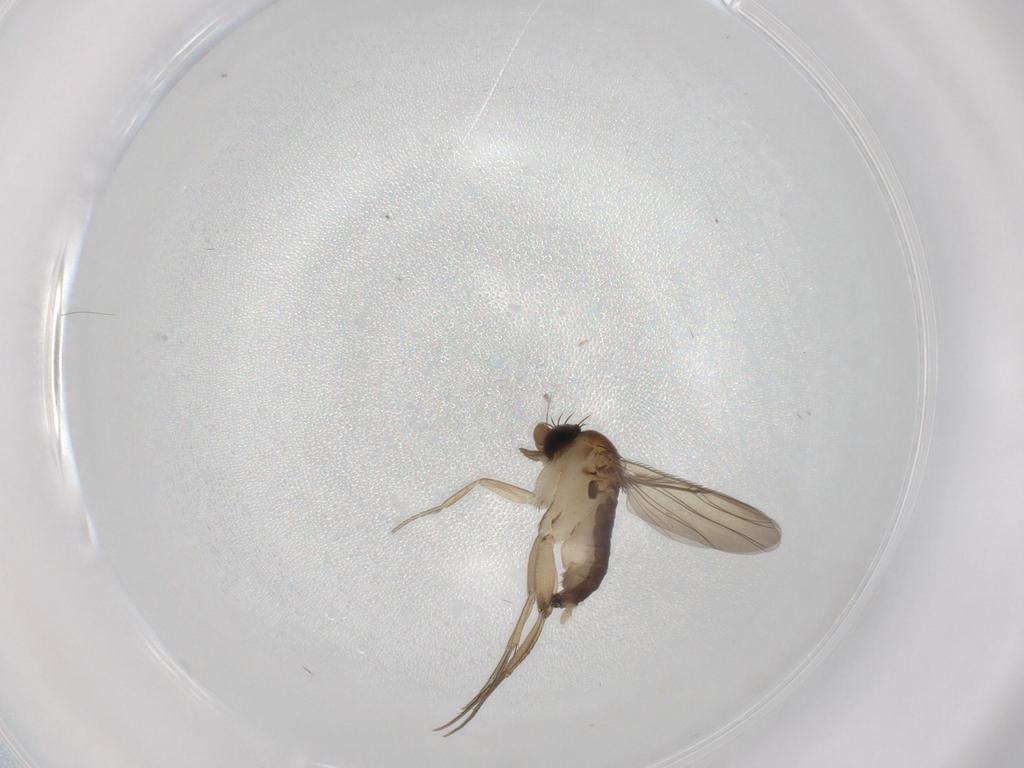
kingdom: Animalia
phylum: Arthropoda
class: Insecta
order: Diptera
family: Phoridae
